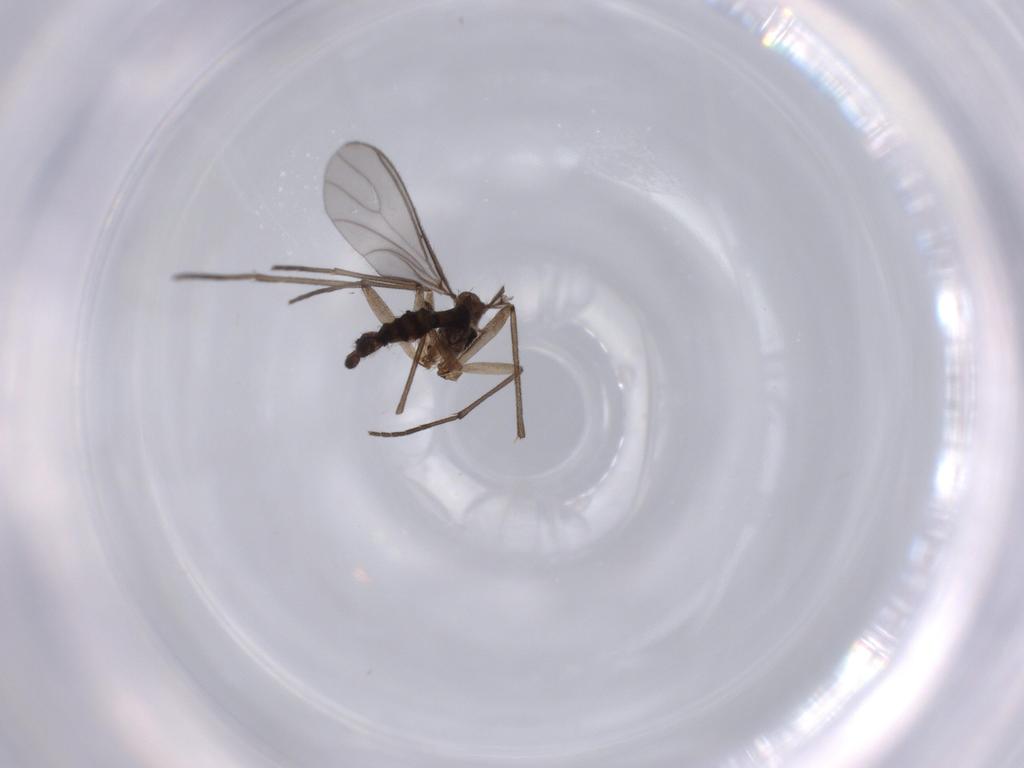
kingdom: Animalia
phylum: Arthropoda
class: Insecta
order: Diptera
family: Sciaridae
